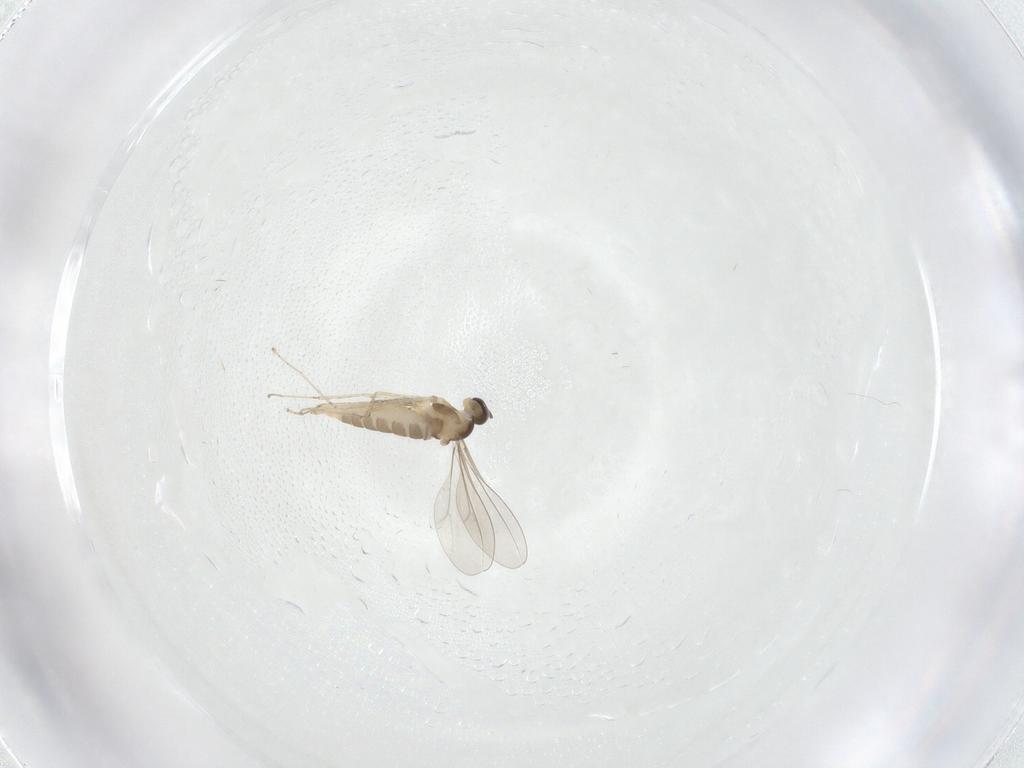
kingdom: Animalia
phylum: Arthropoda
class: Insecta
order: Diptera
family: Cecidomyiidae
